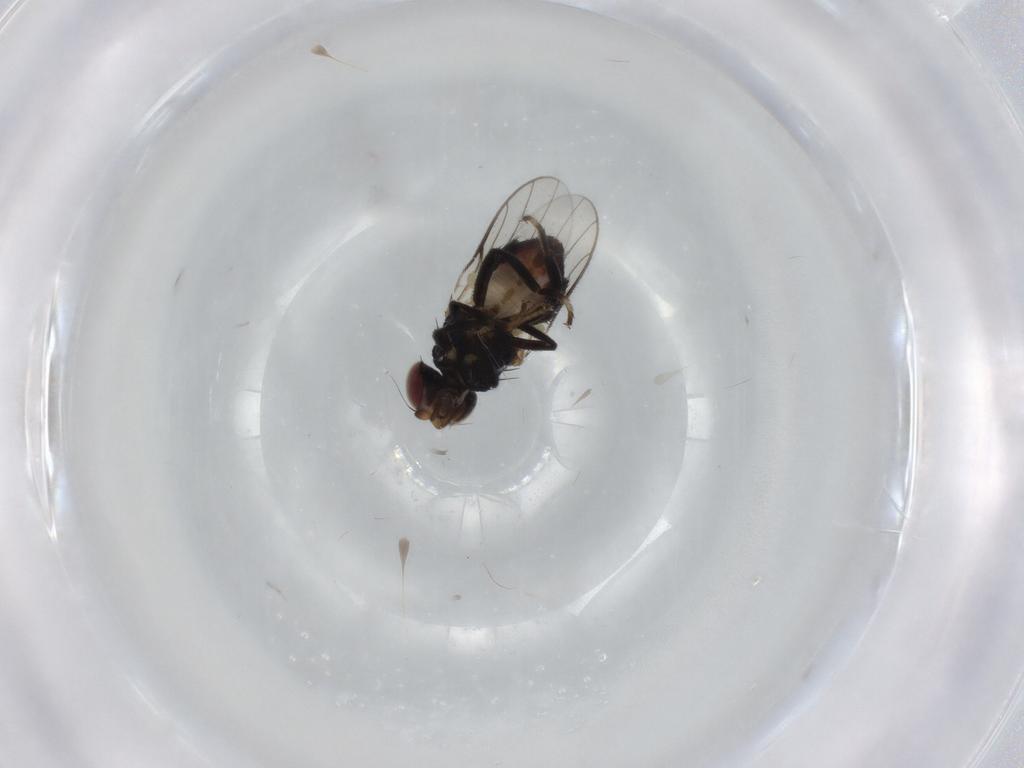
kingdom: Animalia
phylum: Arthropoda
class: Insecta
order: Diptera
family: Chloropidae
